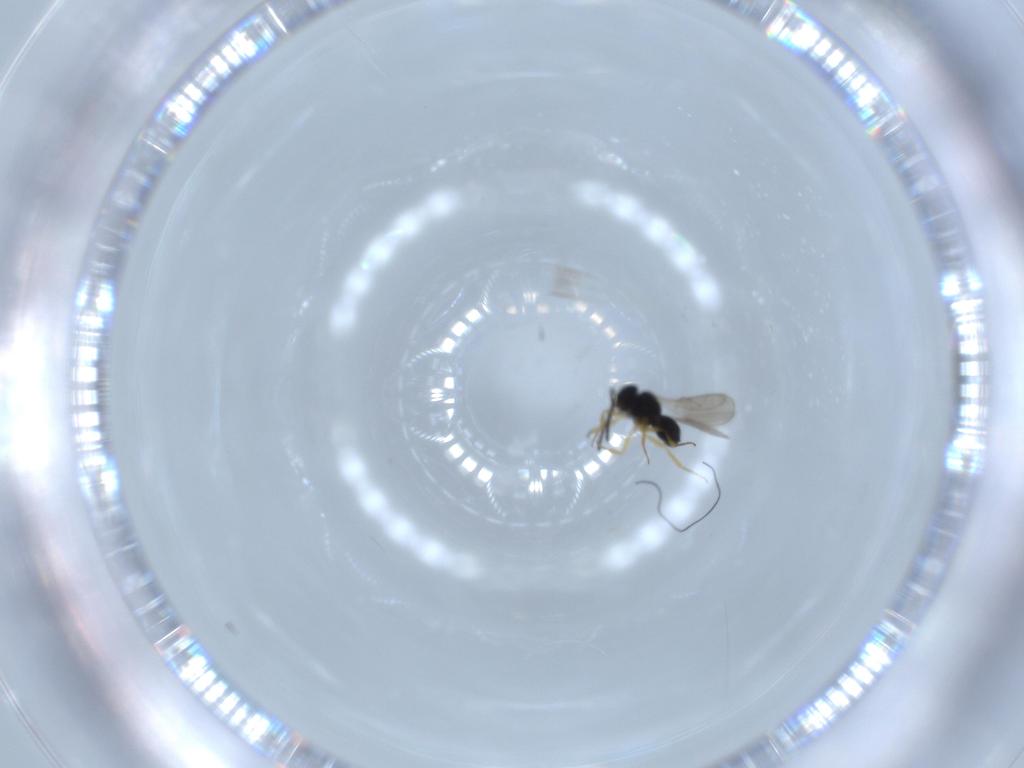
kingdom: Animalia
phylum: Arthropoda
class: Insecta
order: Hymenoptera
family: Scelionidae
